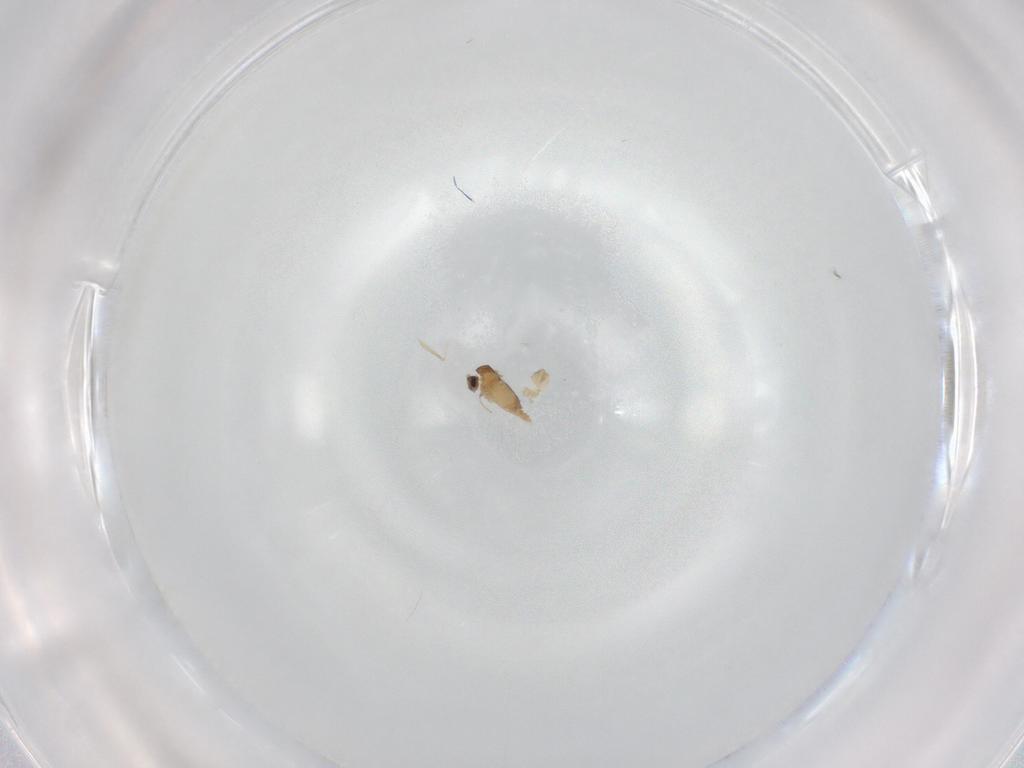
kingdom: Animalia
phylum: Arthropoda
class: Insecta
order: Diptera
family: Cecidomyiidae
